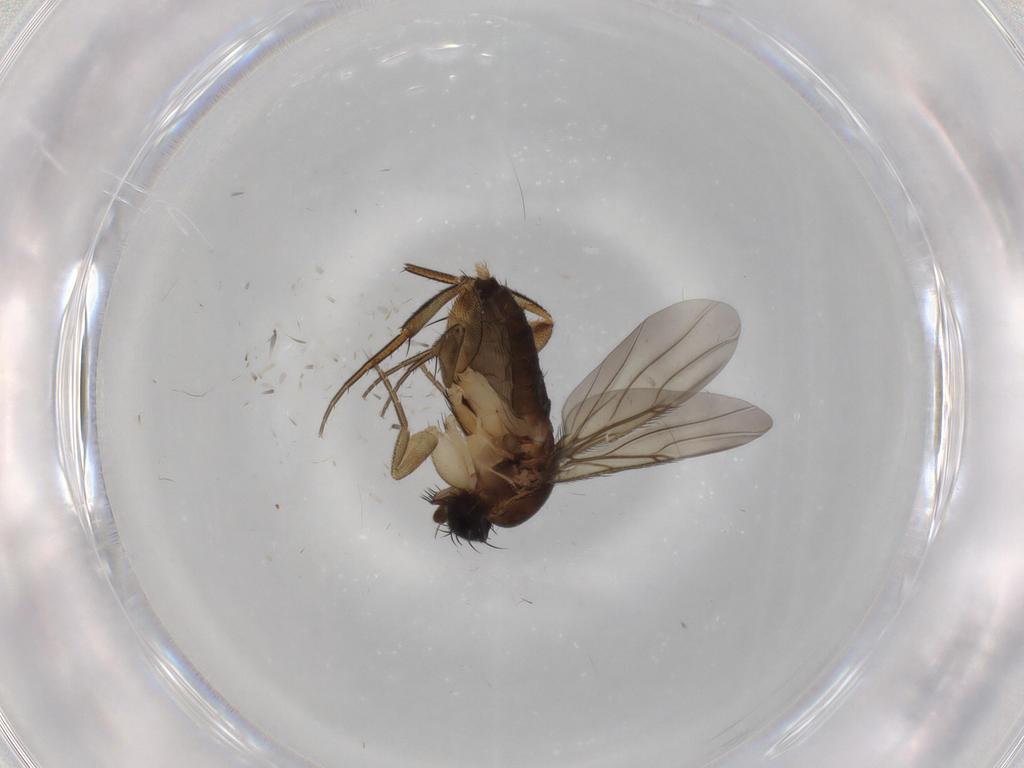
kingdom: Animalia
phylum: Arthropoda
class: Insecta
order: Diptera
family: Phoridae
